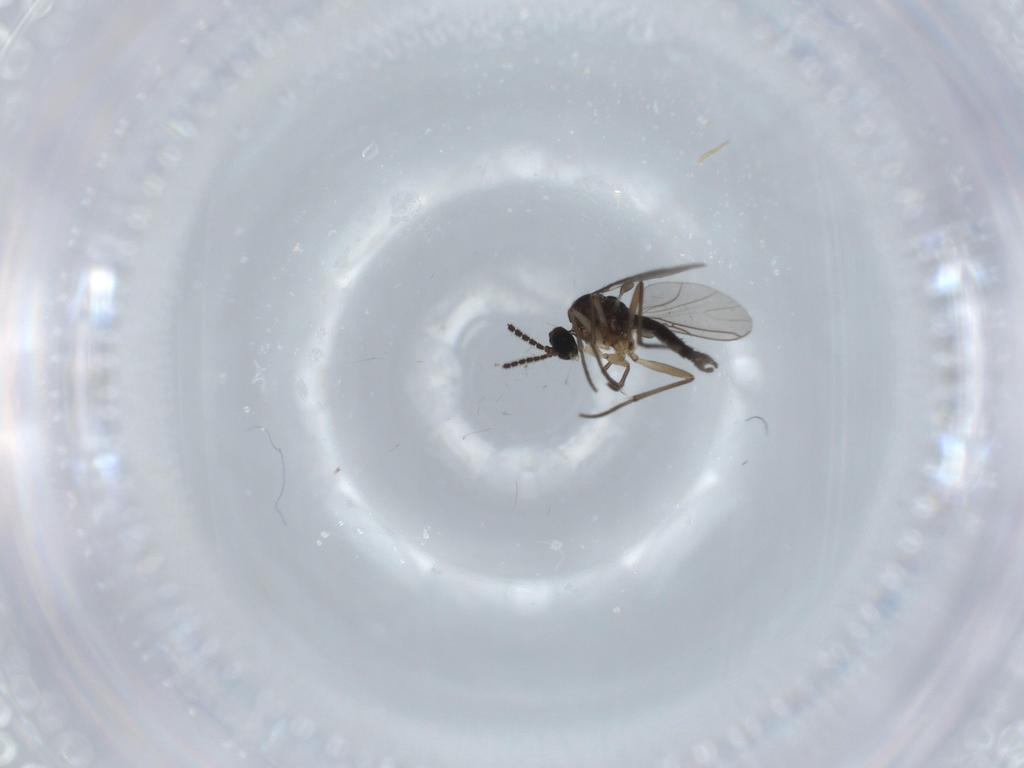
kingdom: Animalia
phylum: Arthropoda
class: Insecta
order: Diptera
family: Sciaridae
